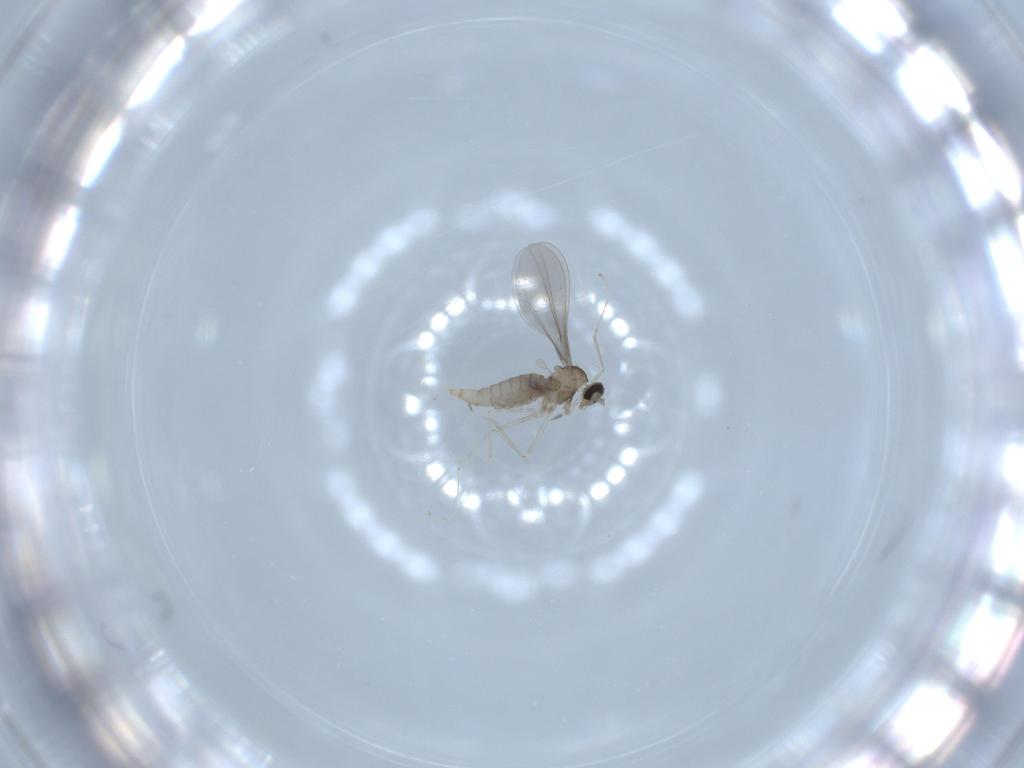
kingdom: Animalia
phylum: Arthropoda
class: Insecta
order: Diptera
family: Cecidomyiidae
